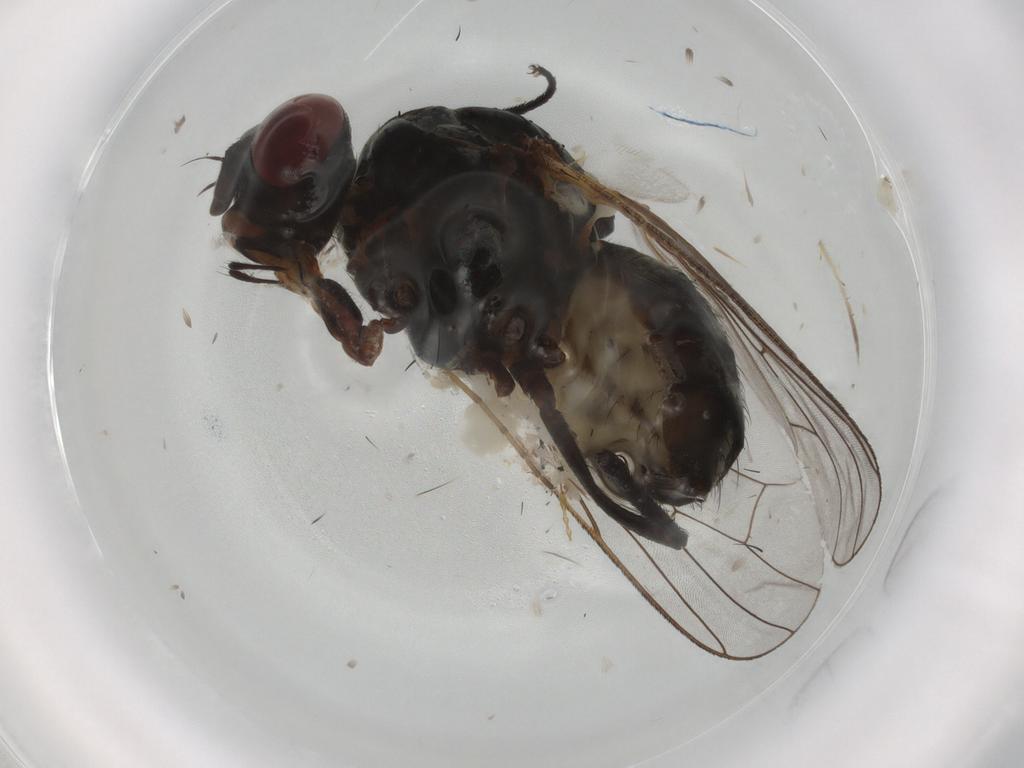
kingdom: Animalia
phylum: Arthropoda
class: Insecta
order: Diptera
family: Anthomyiidae
